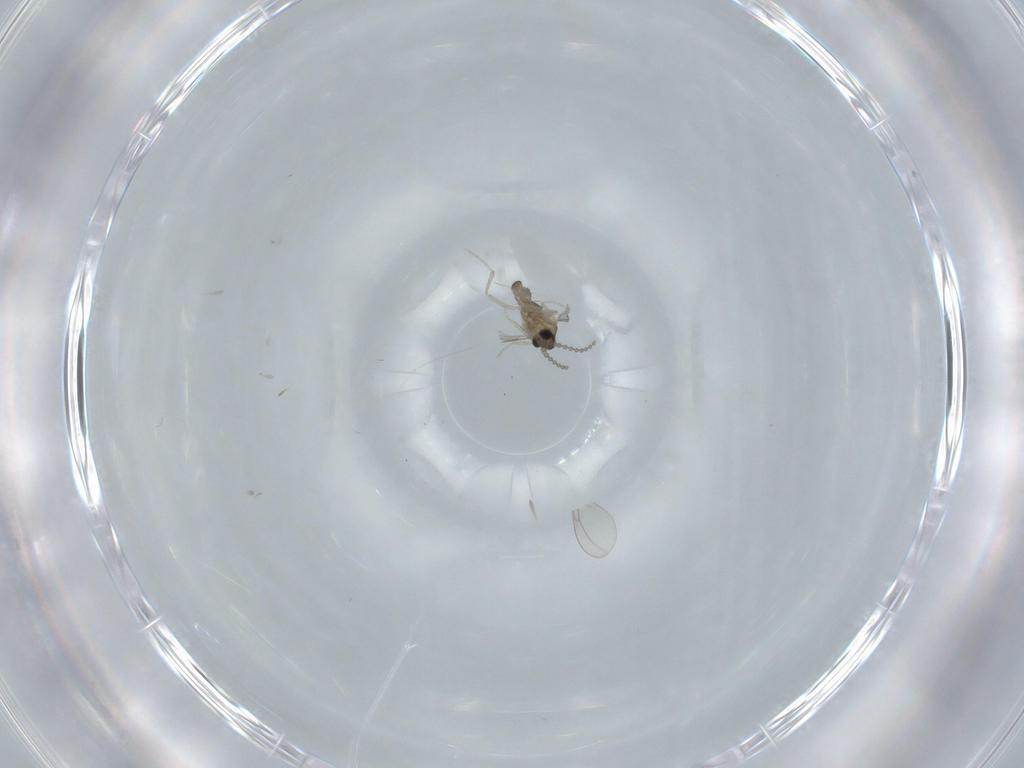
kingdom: Animalia
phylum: Arthropoda
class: Insecta
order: Diptera
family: Cecidomyiidae
